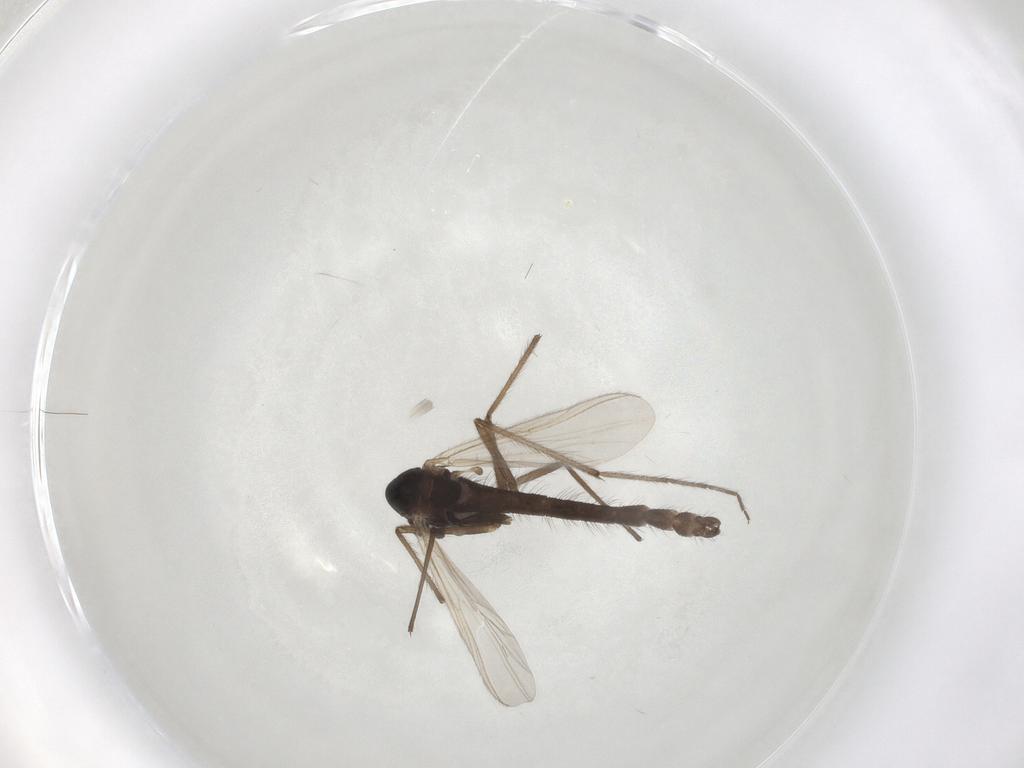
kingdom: Animalia
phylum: Arthropoda
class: Insecta
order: Diptera
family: Chironomidae
